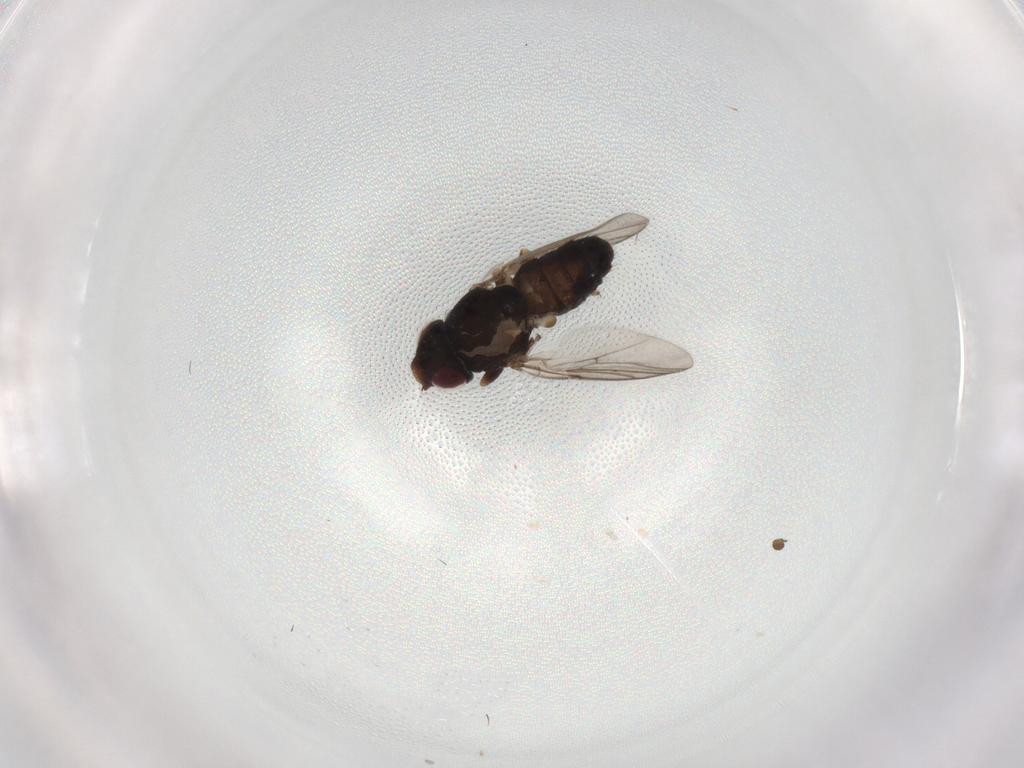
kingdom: Animalia
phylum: Arthropoda
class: Insecta
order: Diptera
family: Chloropidae
